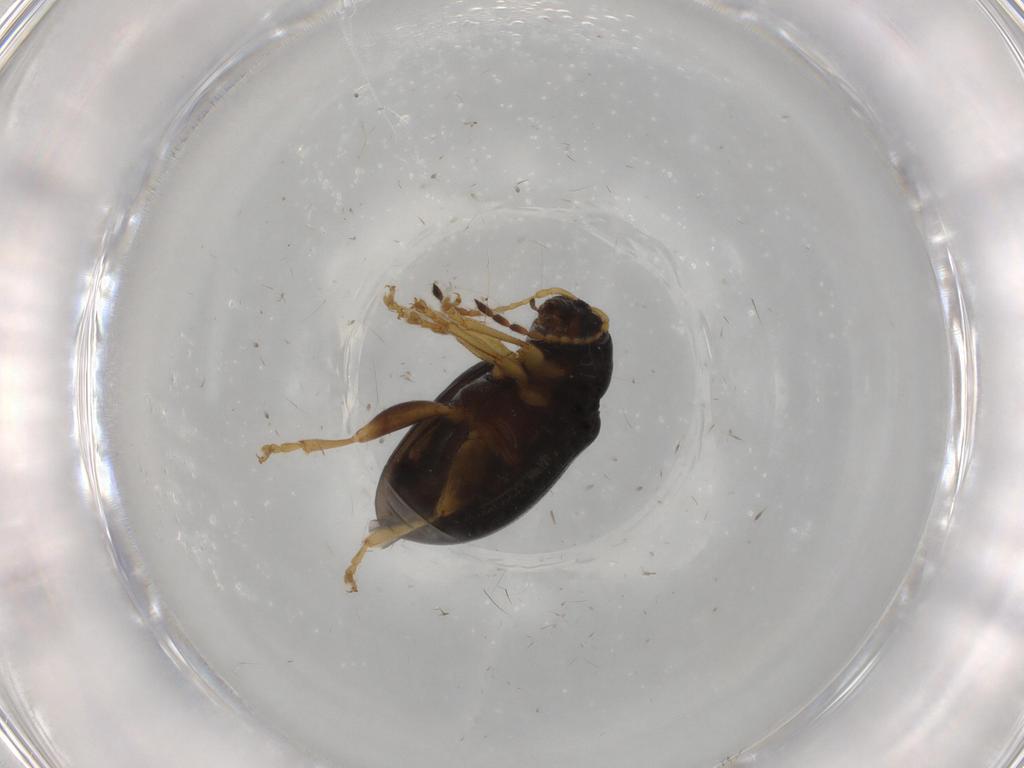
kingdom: Animalia
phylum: Arthropoda
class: Insecta
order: Coleoptera
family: Chrysomelidae
